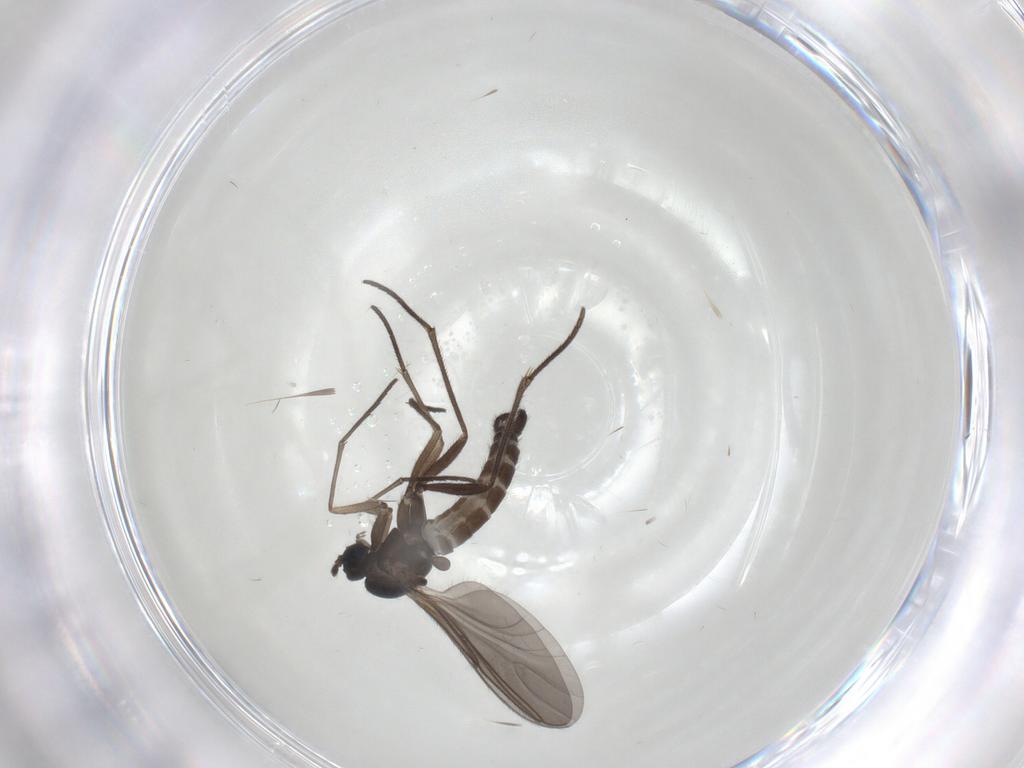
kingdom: Animalia
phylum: Arthropoda
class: Insecta
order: Diptera
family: Sciaridae
